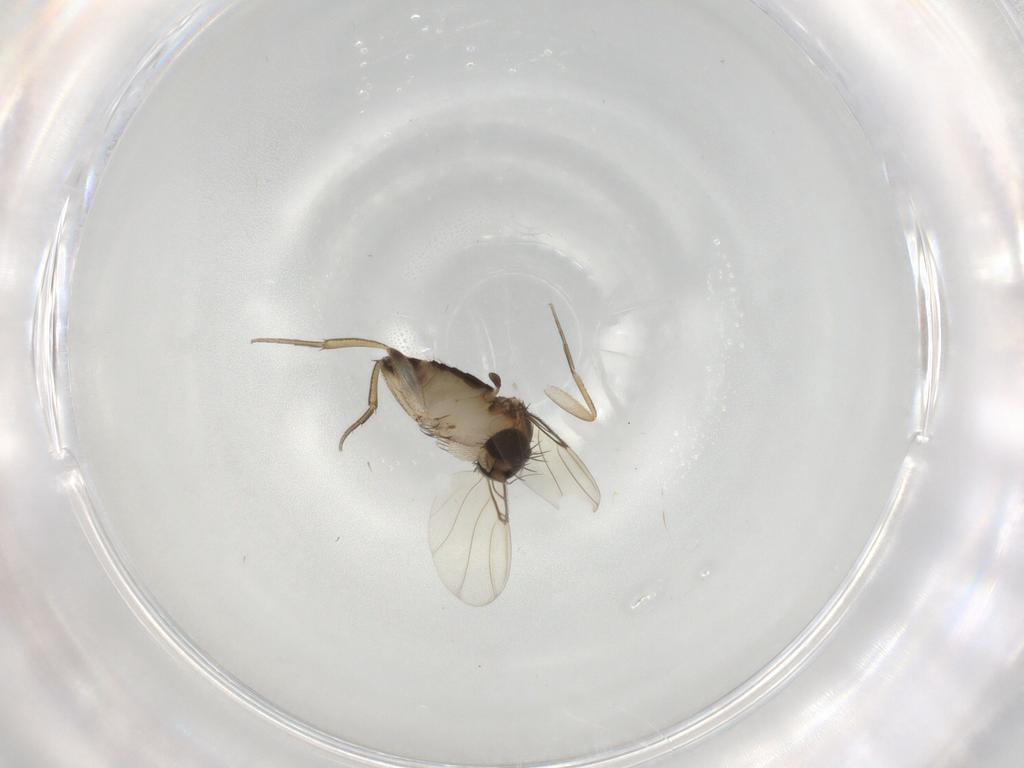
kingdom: Animalia
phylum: Arthropoda
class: Insecta
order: Diptera
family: Phoridae
